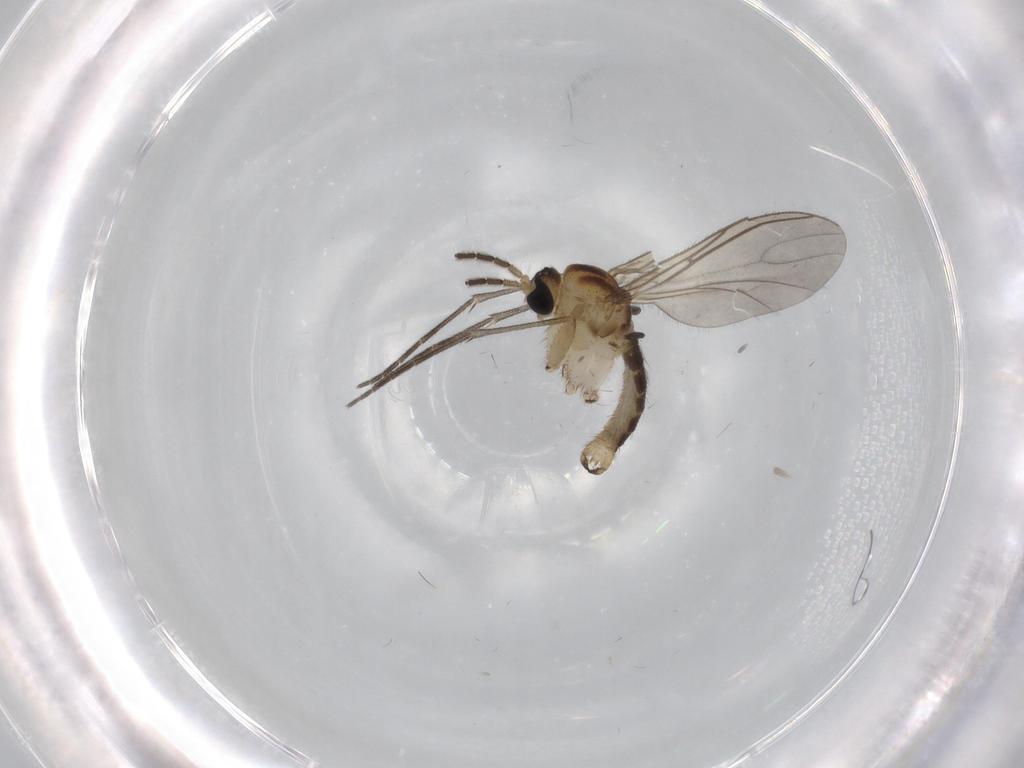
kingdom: Animalia
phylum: Arthropoda
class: Insecta
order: Diptera
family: Sciaridae
